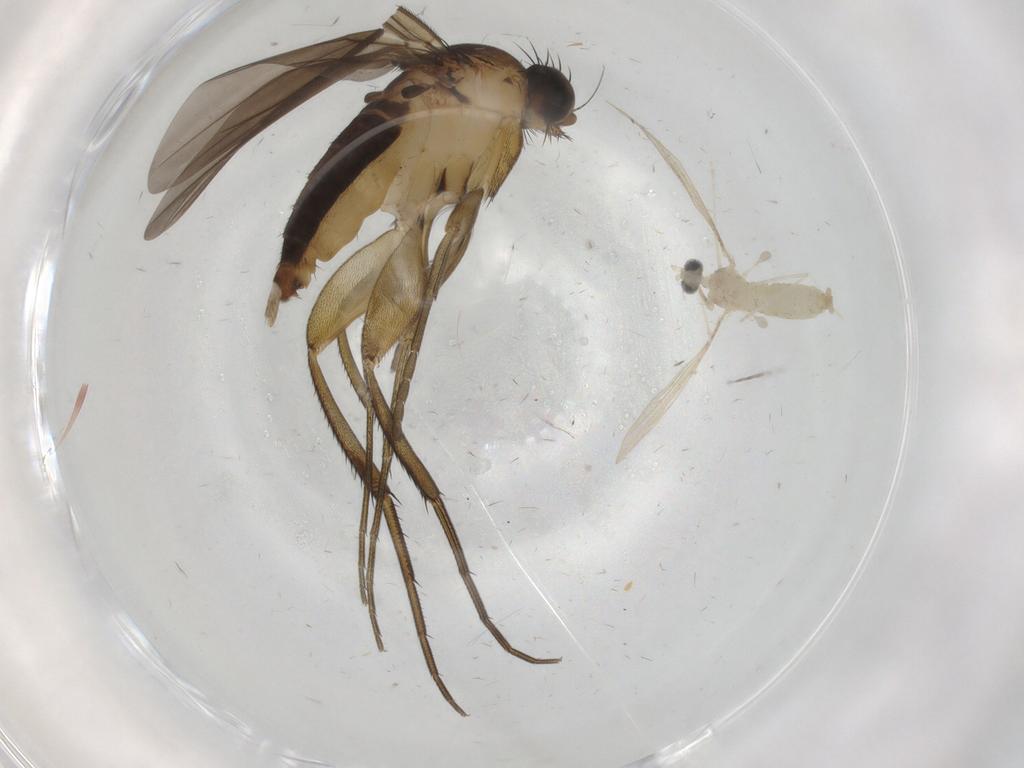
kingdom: Animalia
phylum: Arthropoda
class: Insecta
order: Diptera
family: Cecidomyiidae
